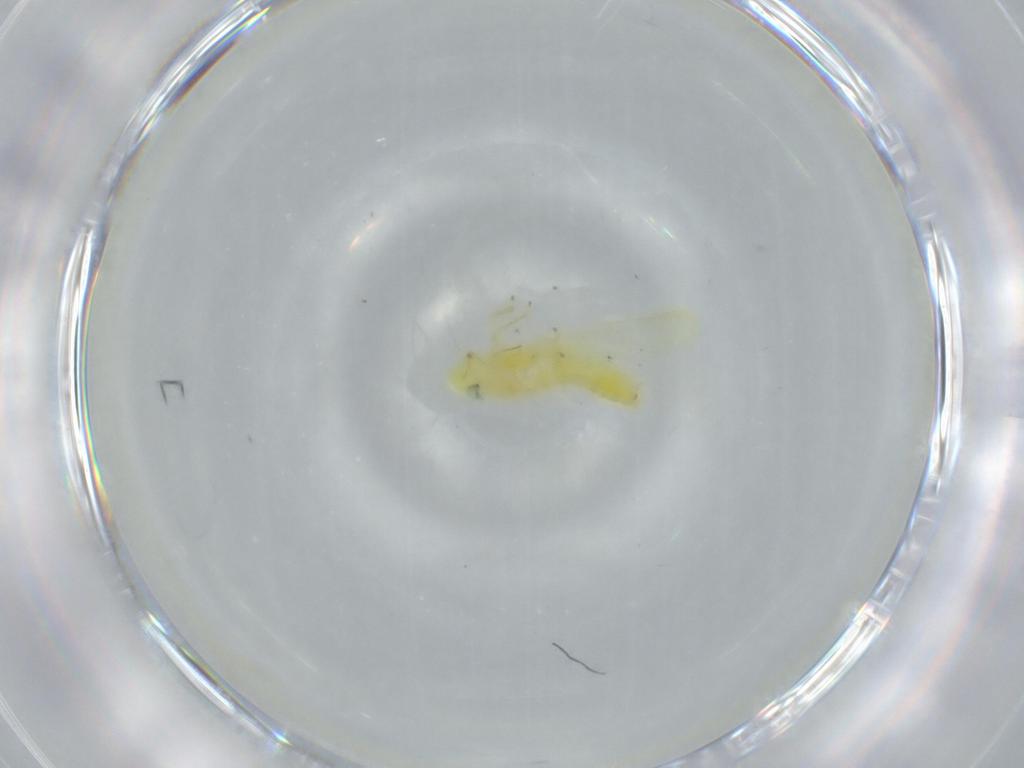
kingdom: Animalia
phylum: Arthropoda
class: Insecta
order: Hemiptera
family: Cicadellidae
